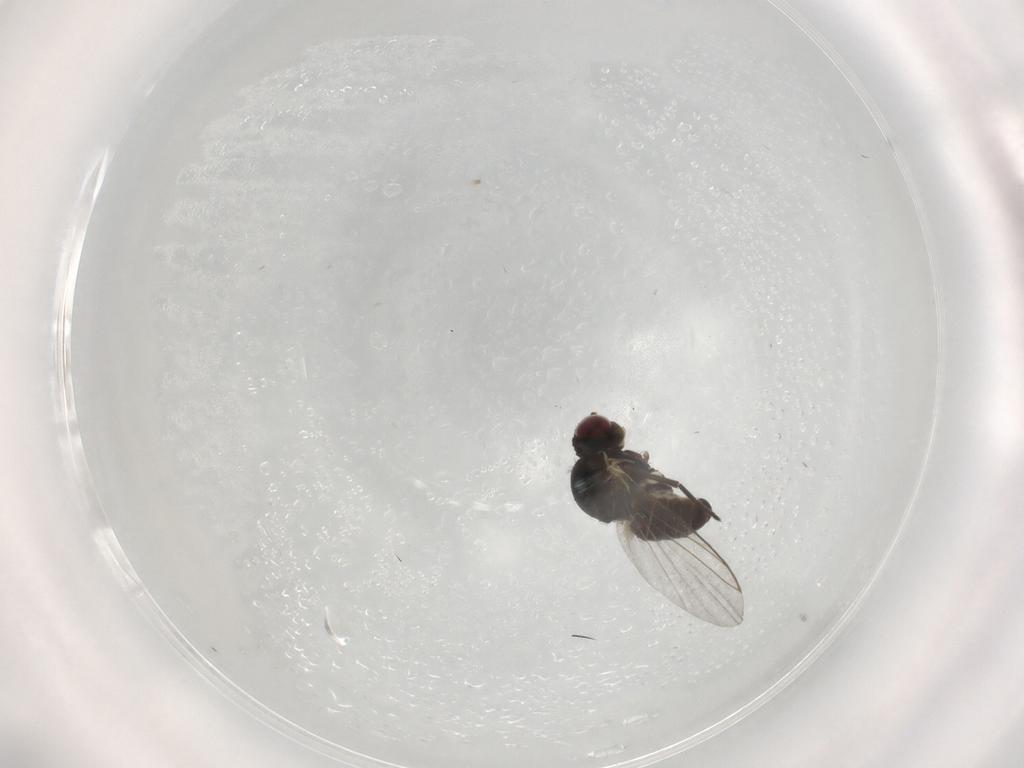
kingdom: Animalia
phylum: Arthropoda
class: Insecta
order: Diptera
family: Agromyzidae
